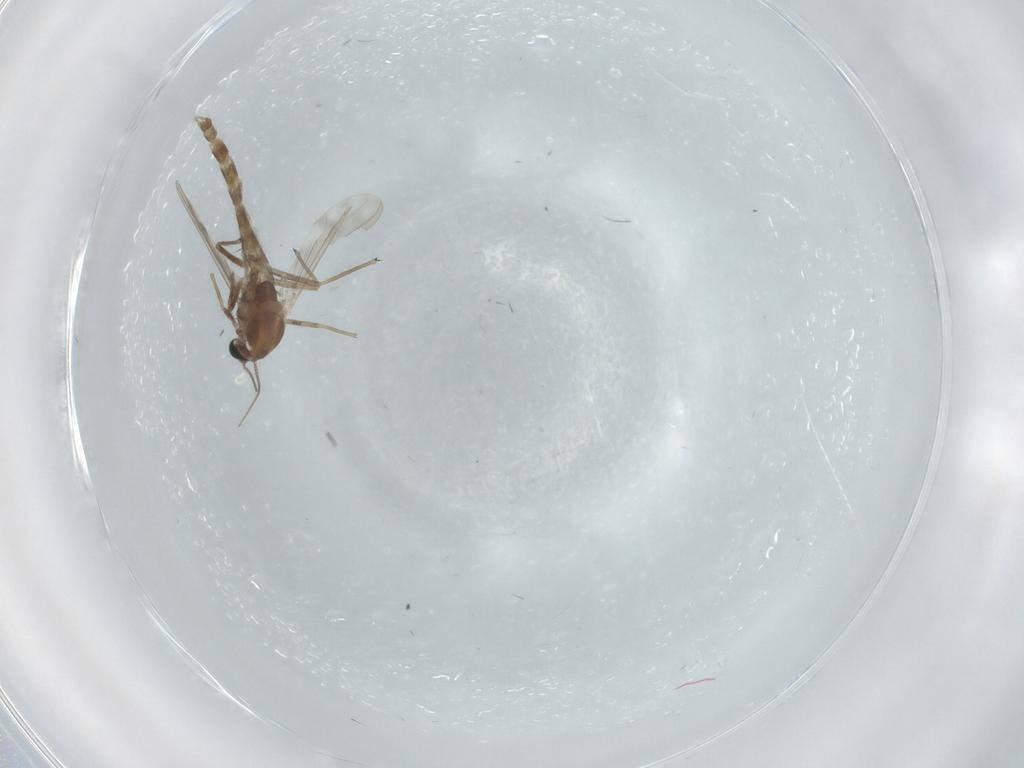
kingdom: Animalia
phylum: Arthropoda
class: Insecta
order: Diptera
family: Chironomidae
